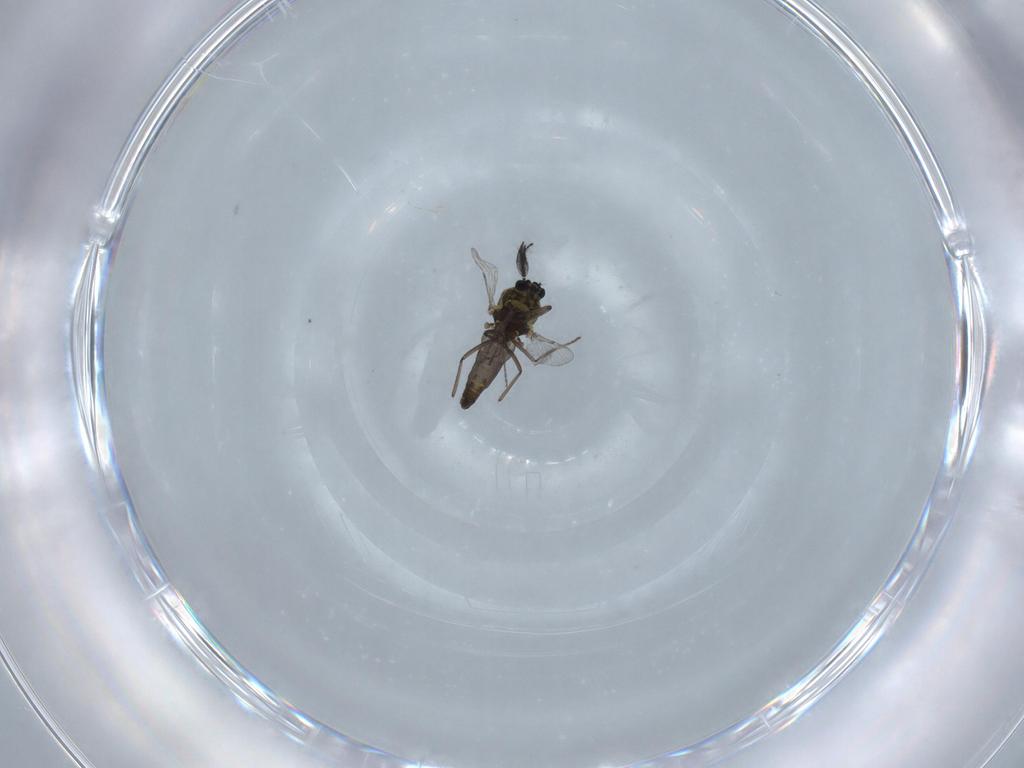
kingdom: Animalia
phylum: Arthropoda
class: Insecta
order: Diptera
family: Ceratopogonidae
